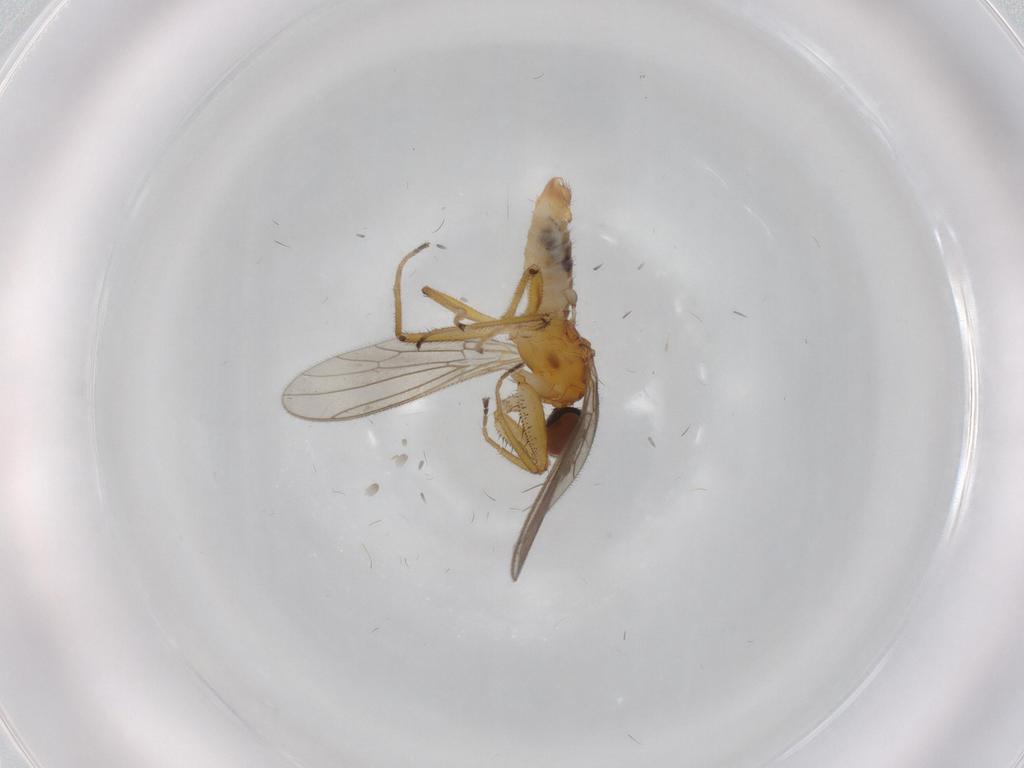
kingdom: Animalia
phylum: Arthropoda
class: Insecta
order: Diptera
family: Empididae
